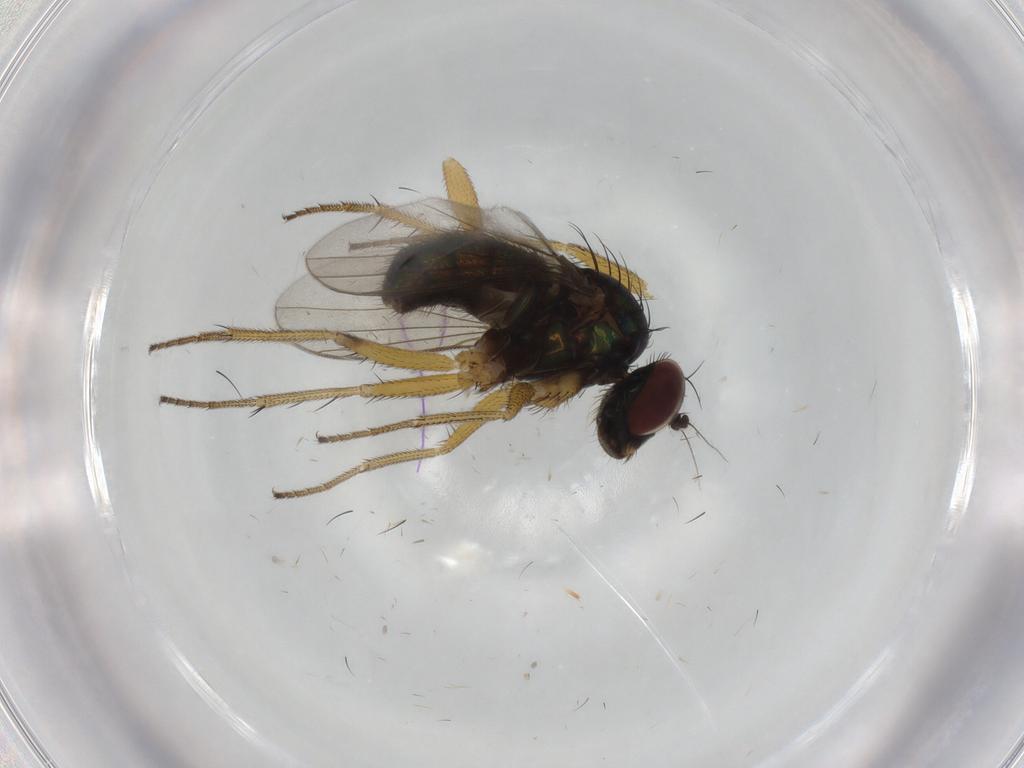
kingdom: Animalia
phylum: Arthropoda
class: Insecta
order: Diptera
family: Dolichopodidae
